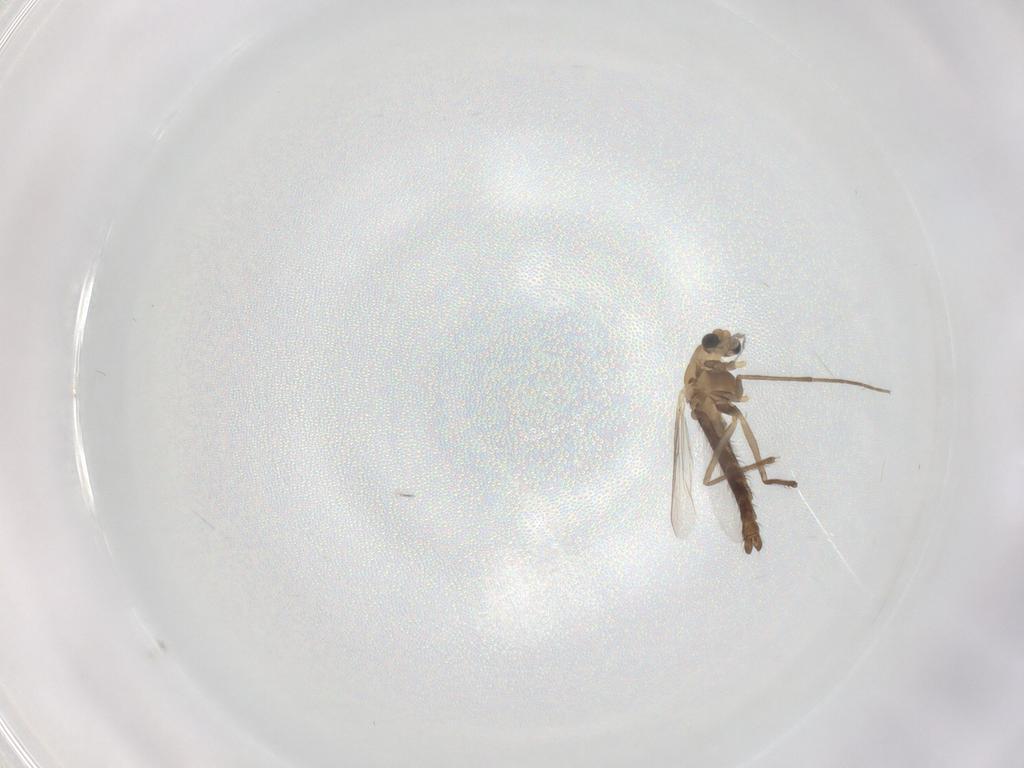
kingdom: Animalia
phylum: Arthropoda
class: Insecta
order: Diptera
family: Chironomidae
